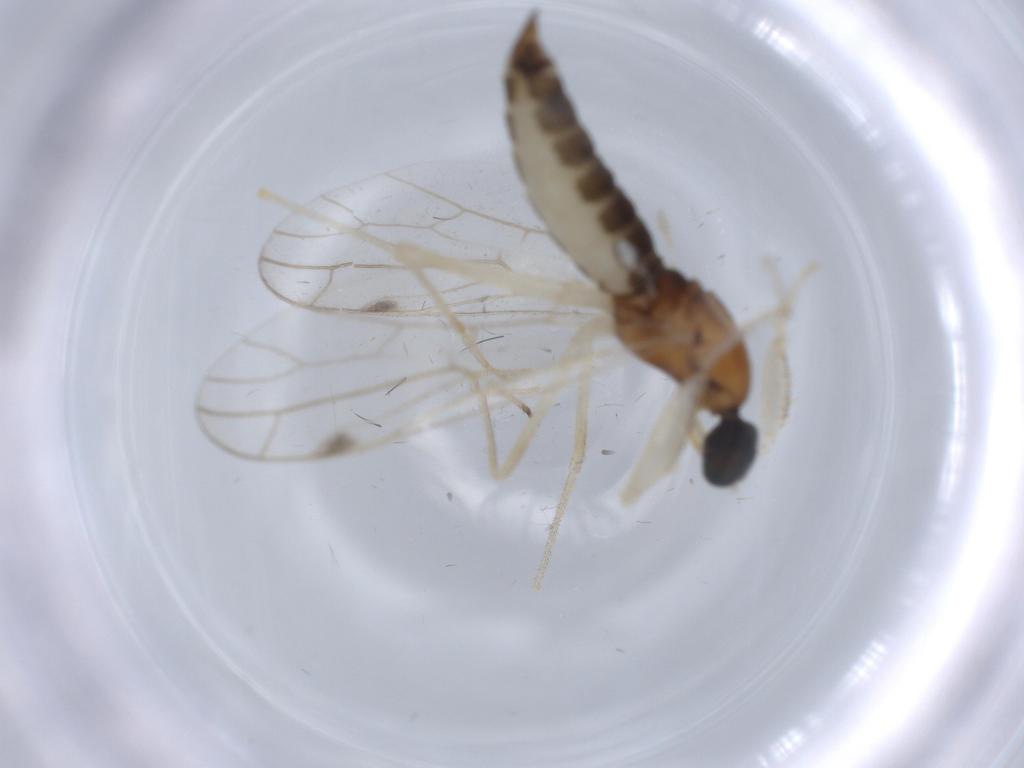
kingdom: Animalia
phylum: Arthropoda
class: Insecta
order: Diptera
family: Empididae
